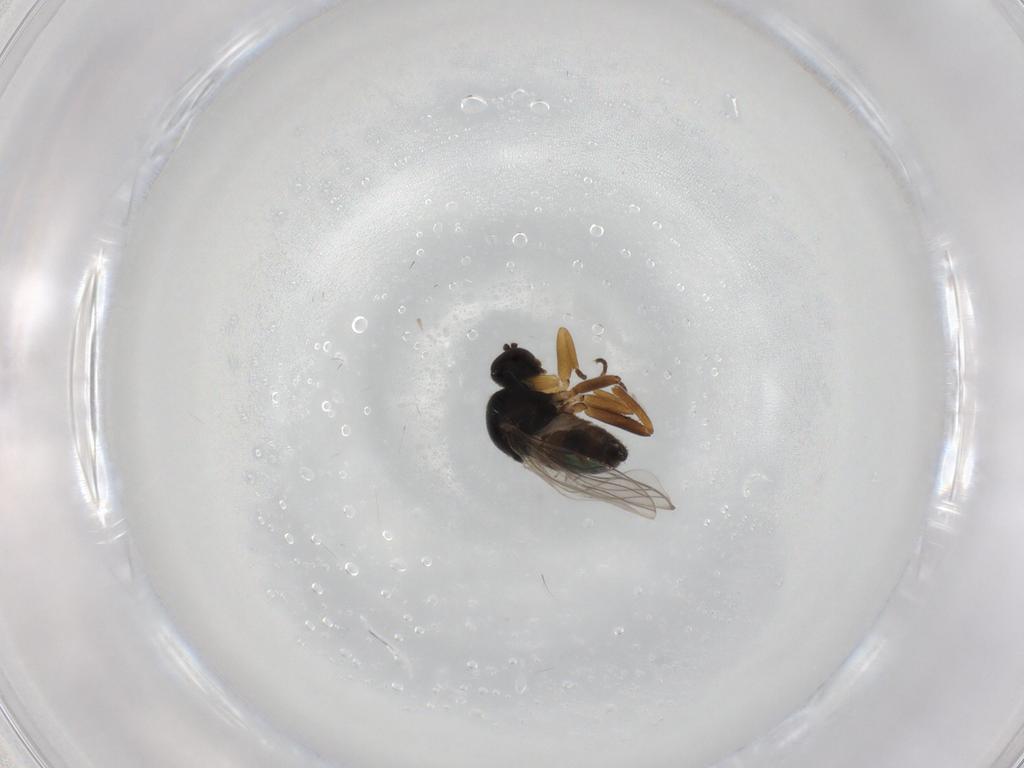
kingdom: Animalia
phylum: Arthropoda
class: Insecta
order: Diptera
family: Hybotidae
